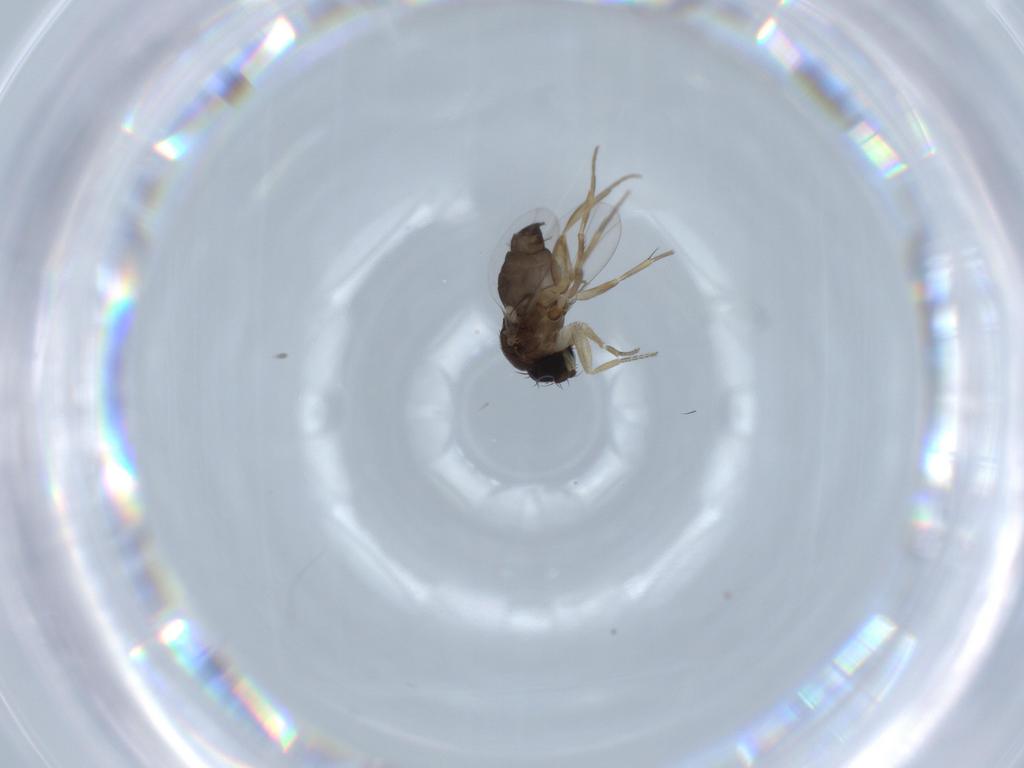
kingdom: Animalia
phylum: Arthropoda
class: Insecta
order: Diptera
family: Phoridae
